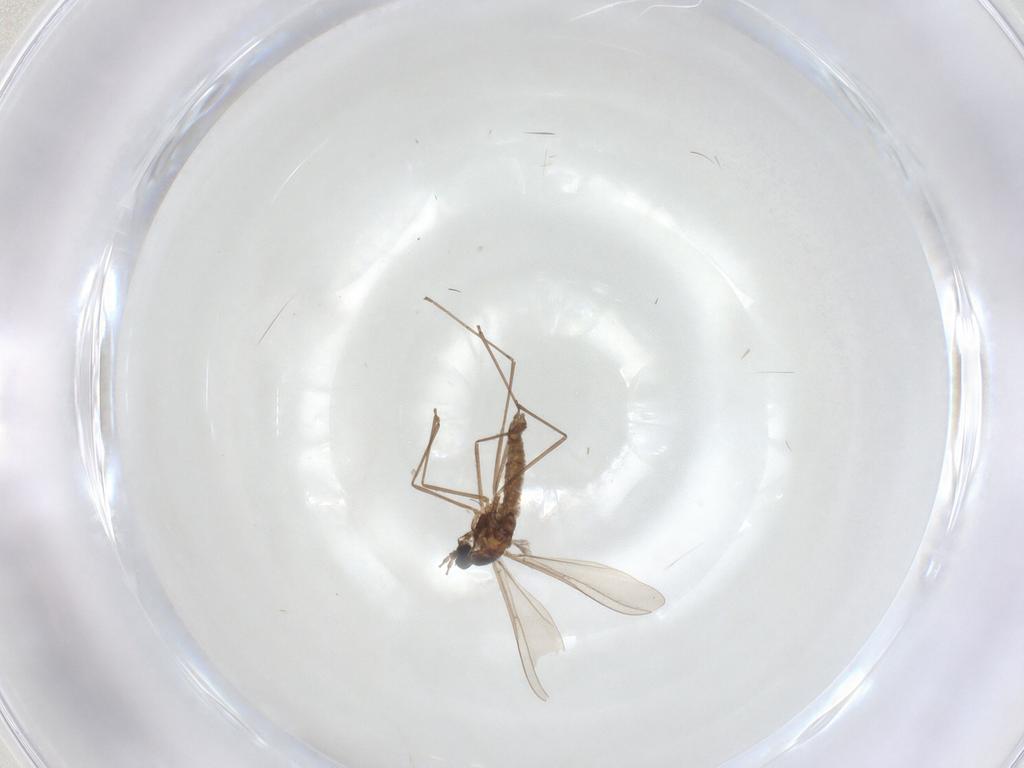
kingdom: Animalia
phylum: Arthropoda
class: Insecta
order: Diptera
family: Cecidomyiidae
